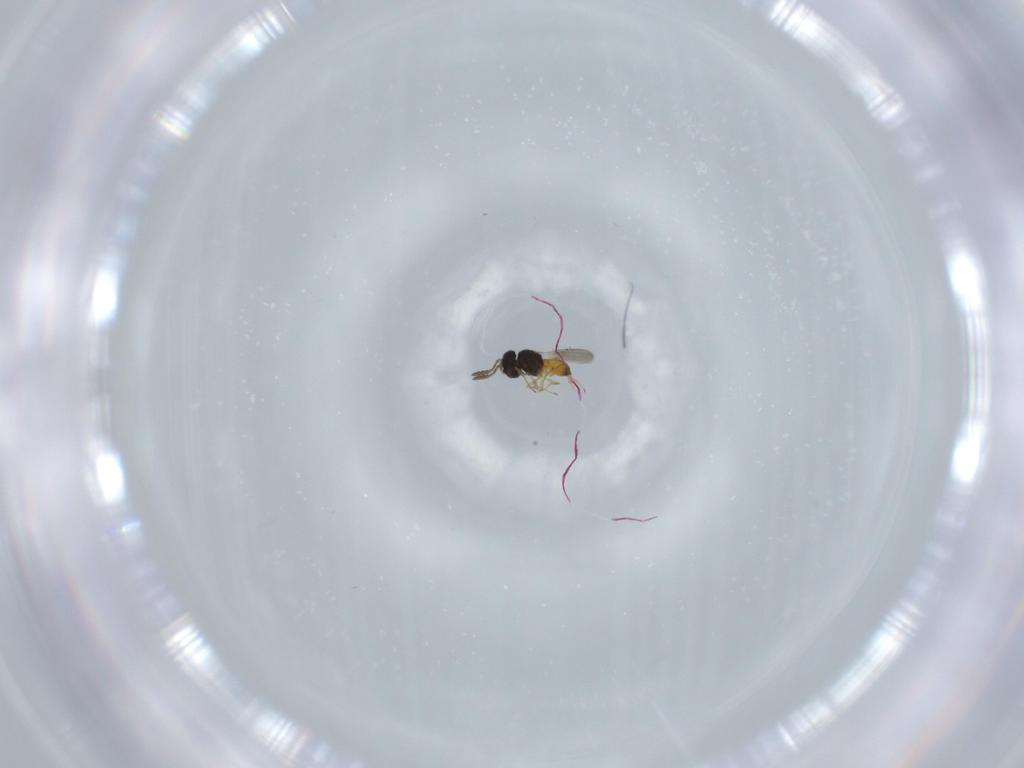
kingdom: Animalia
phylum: Arthropoda
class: Insecta
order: Hymenoptera
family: Scelionidae
